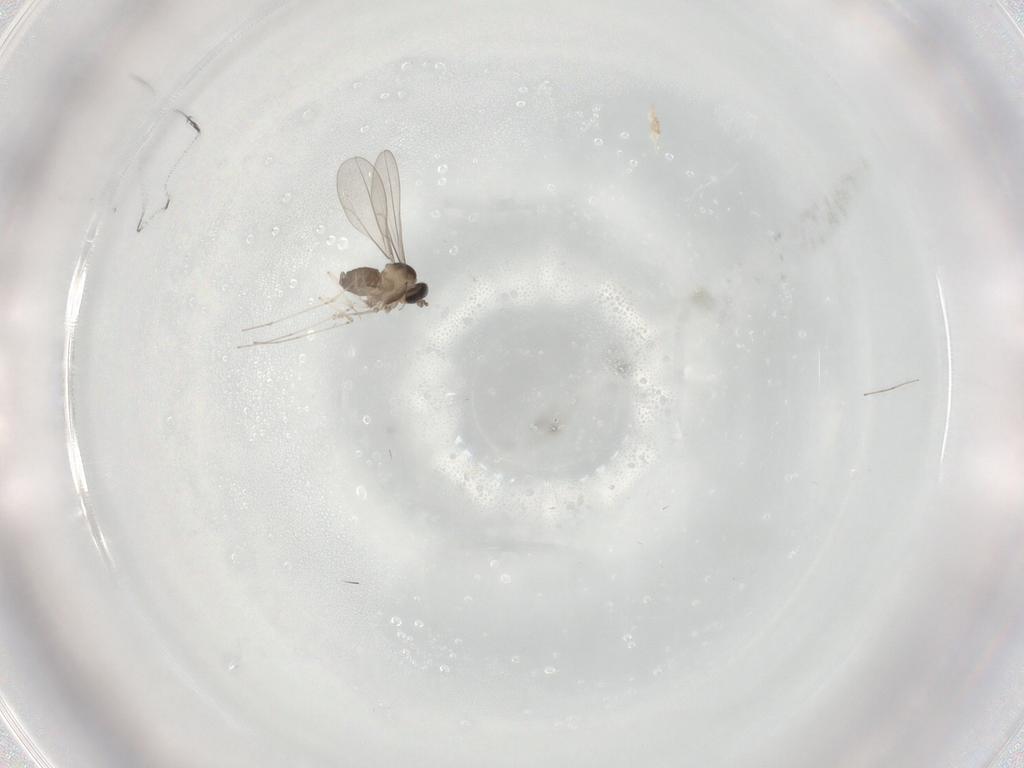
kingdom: Animalia
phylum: Arthropoda
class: Insecta
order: Diptera
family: Cecidomyiidae
